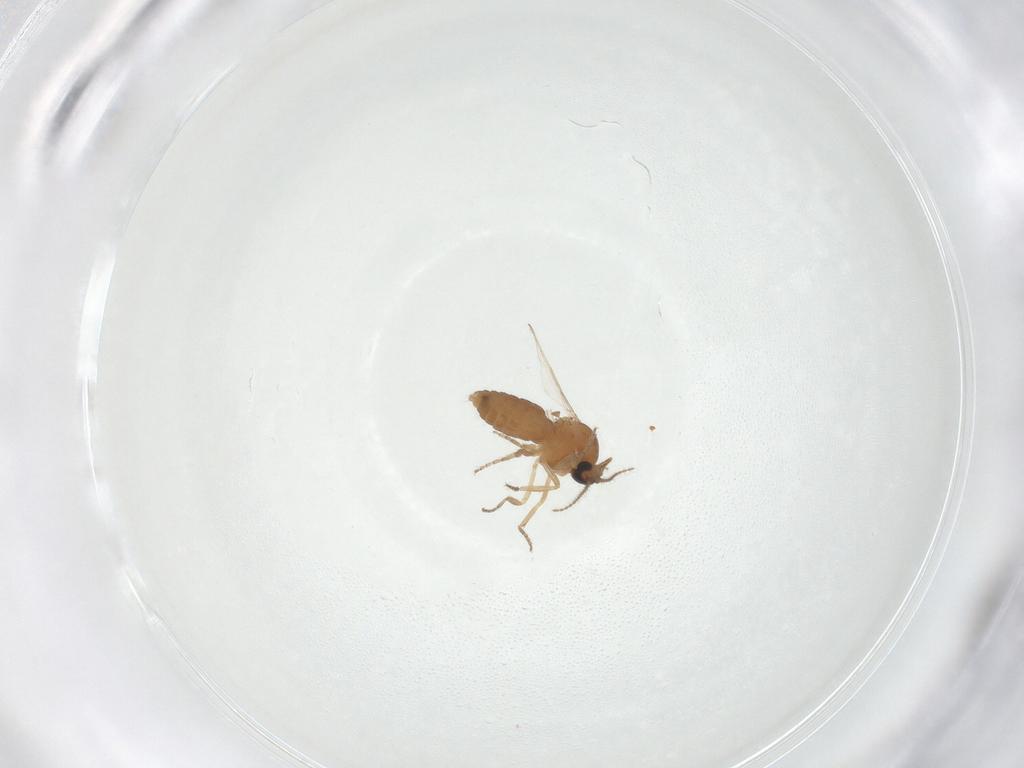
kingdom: Animalia
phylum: Arthropoda
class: Insecta
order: Diptera
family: Ceratopogonidae
